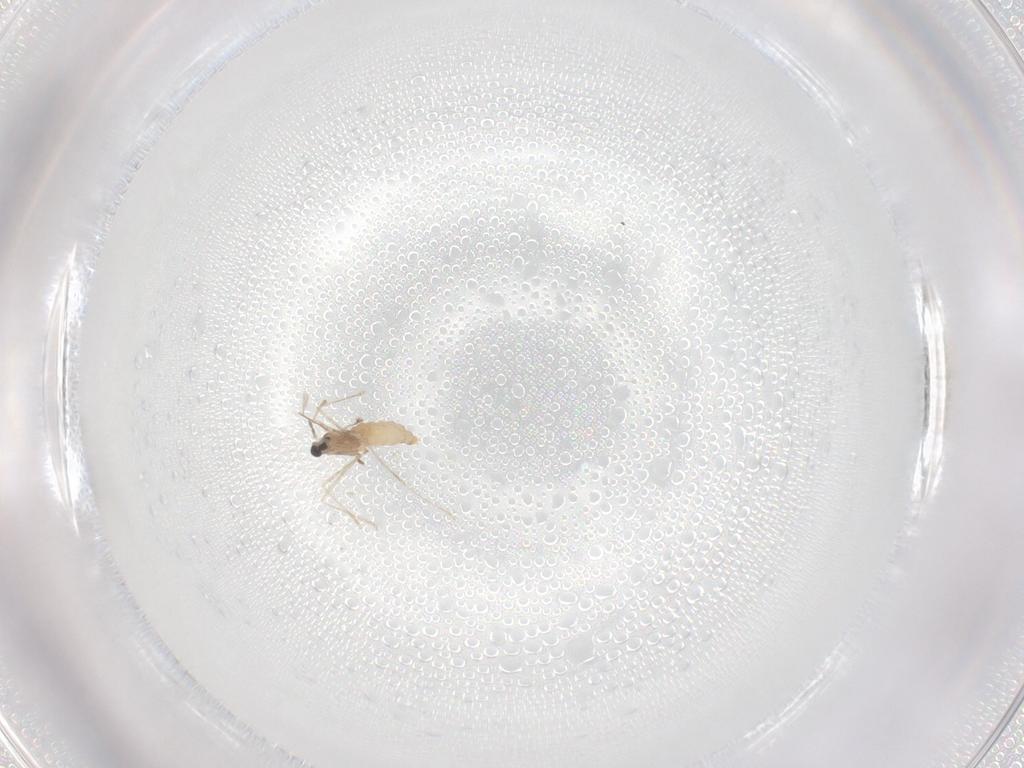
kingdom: Animalia
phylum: Arthropoda
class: Insecta
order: Diptera
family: Cecidomyiidae
